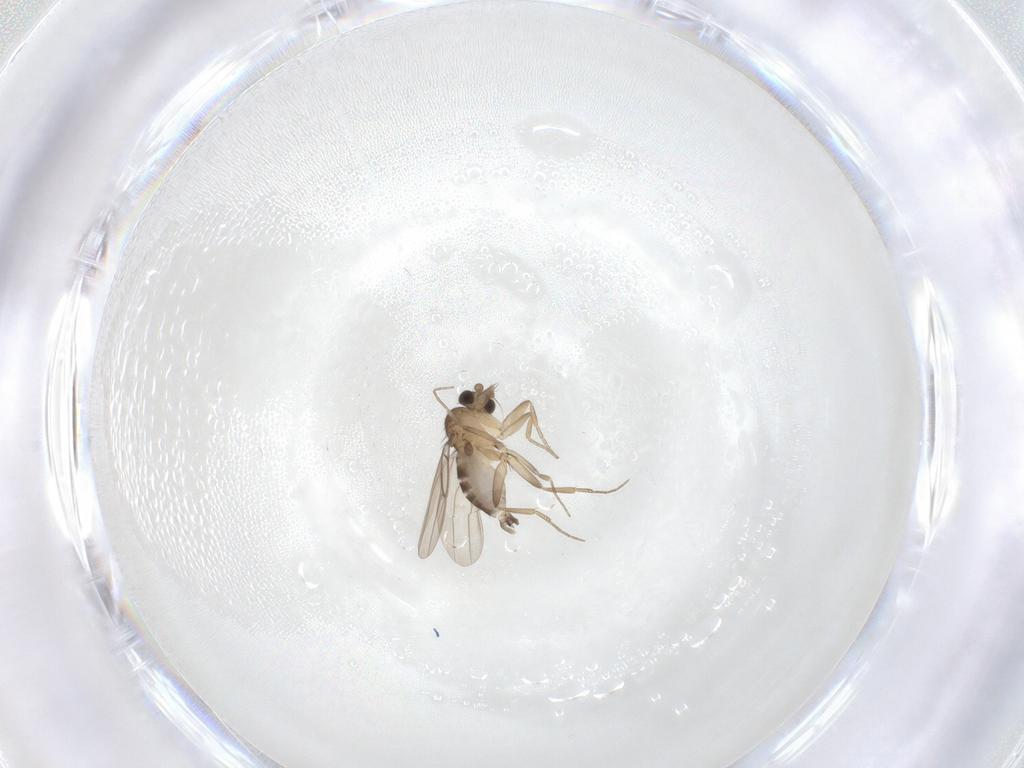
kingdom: Animalia
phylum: Arthropoda
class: Insecta
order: Diptera
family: Phoridae
